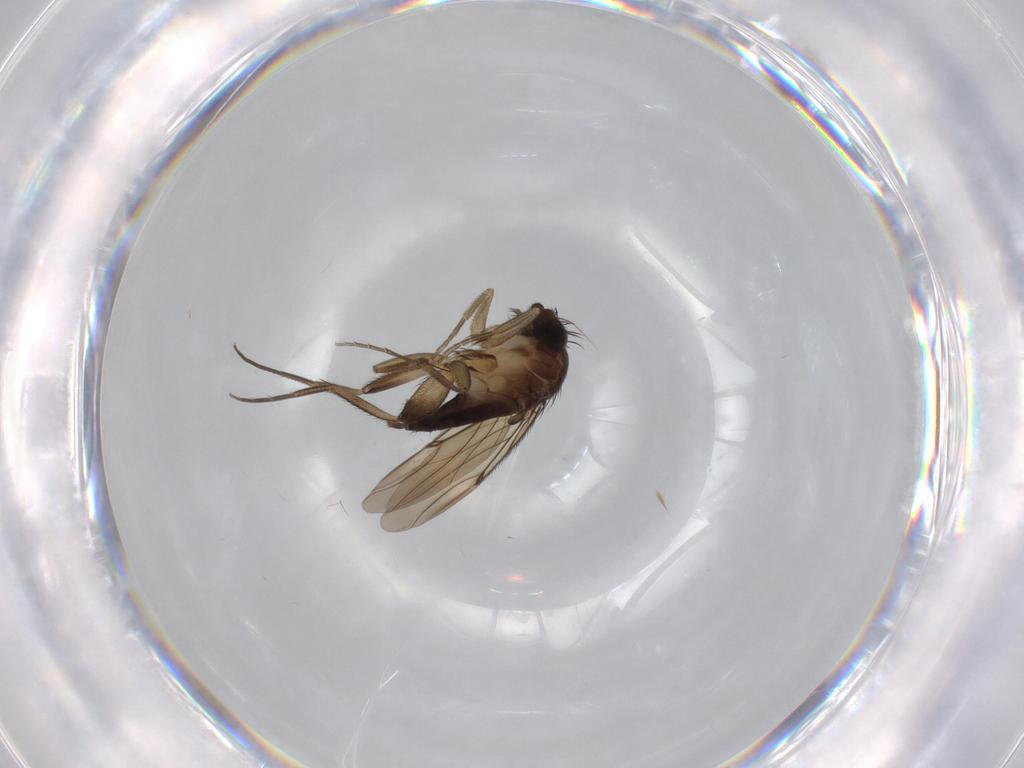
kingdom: Animalia
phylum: Arthropoda
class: Insecta
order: Diptera
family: Phoridae
